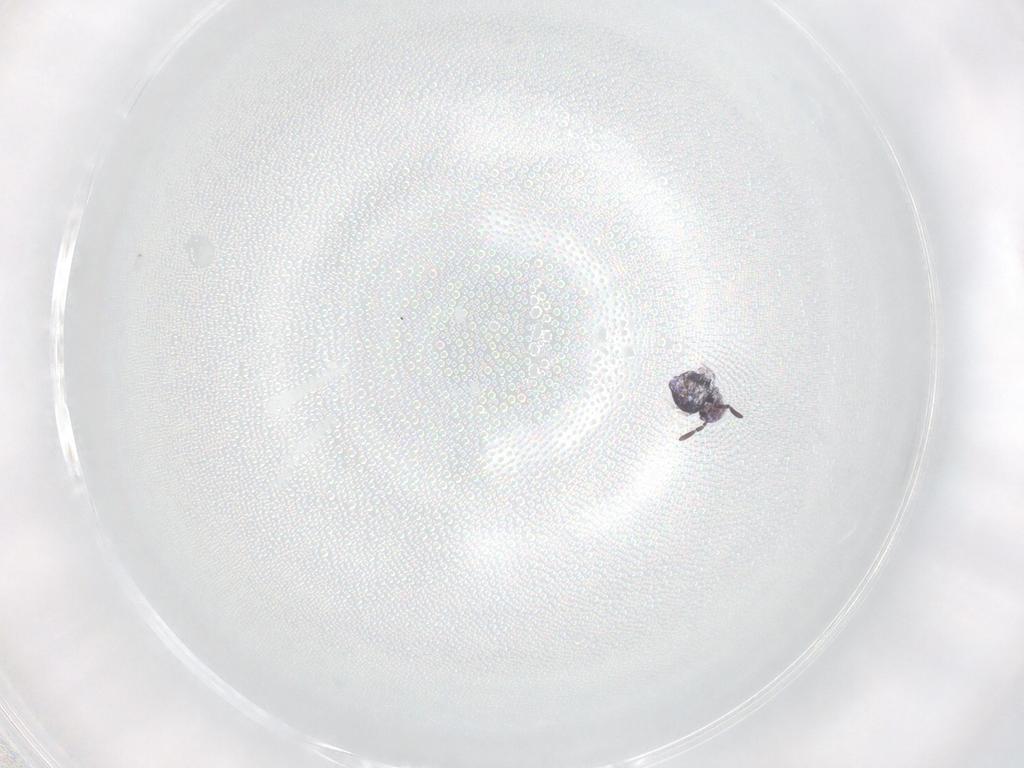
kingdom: Animalia
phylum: Arthropoda
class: Collembola
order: Symphypleona
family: Katiannidae
